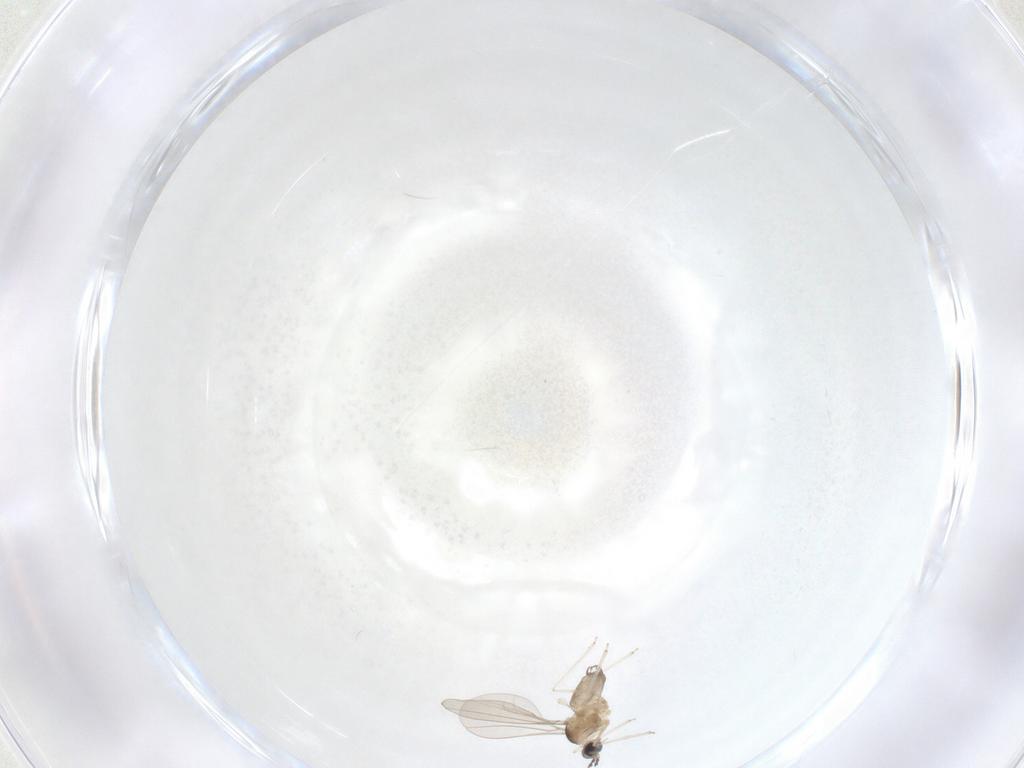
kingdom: Animalia
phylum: Arthropoda
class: Insecta
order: Diptera
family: Cecidomyiidae
